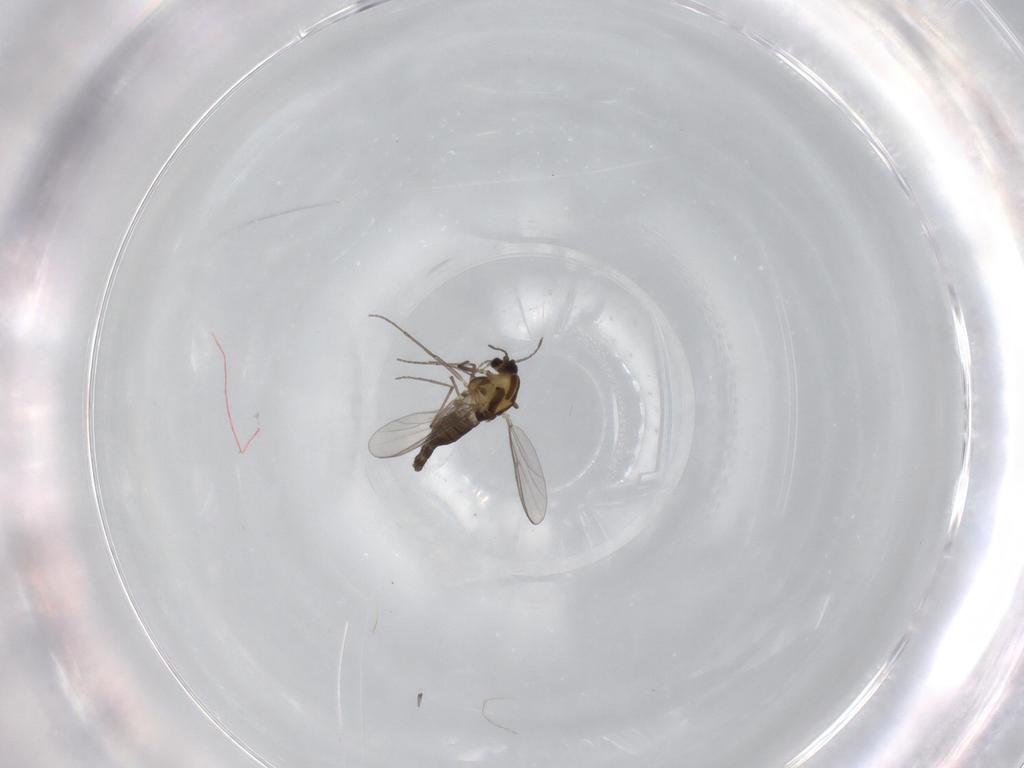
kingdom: Animalia
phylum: Arthropoda
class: Insecta
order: Diptera
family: Chironomidae
